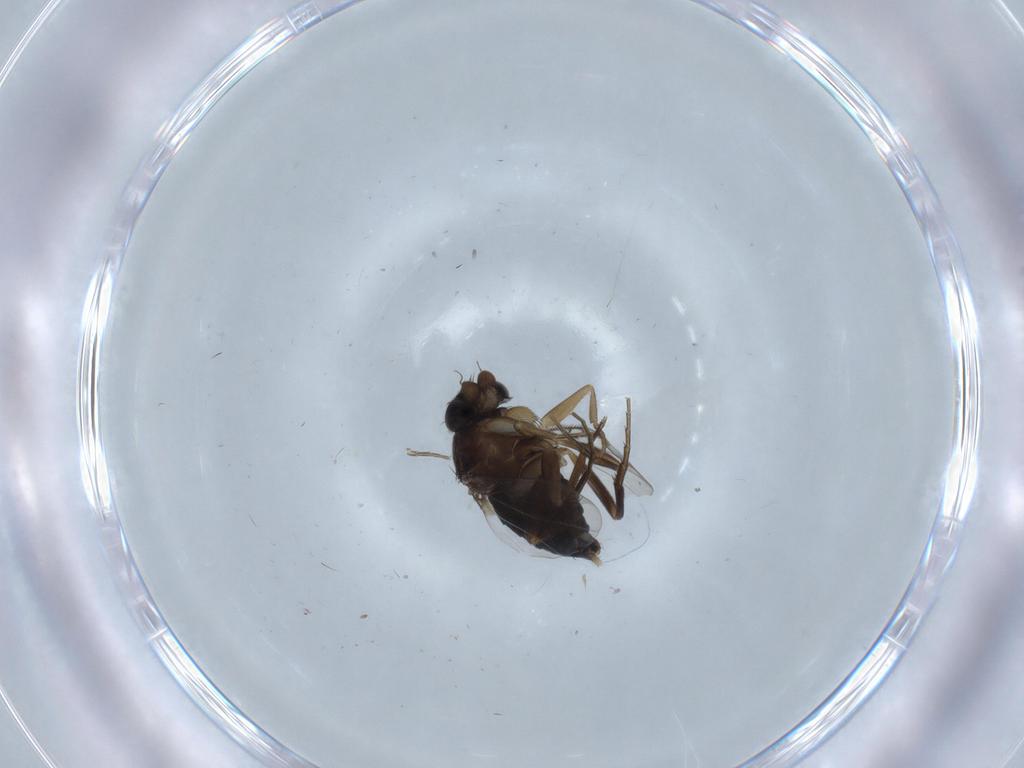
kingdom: Animalia
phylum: Arthropoda
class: Insecta
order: Diptera
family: Phoridae
